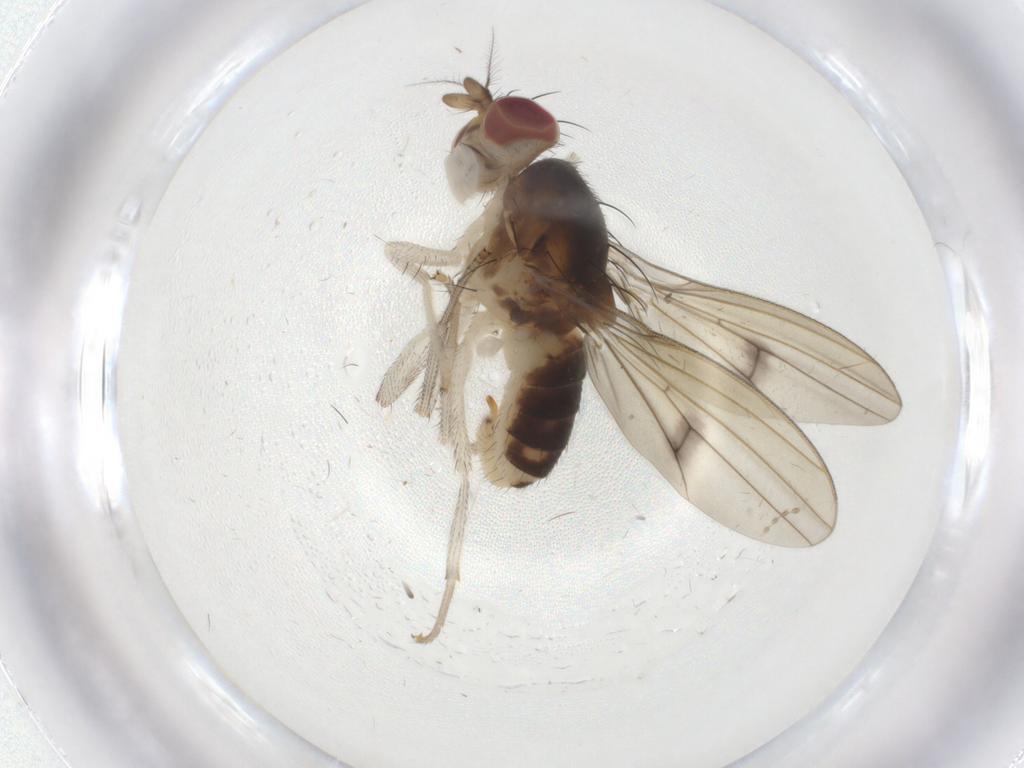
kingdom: Animalia
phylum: Arthropoda
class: Insecta
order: Diptera
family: Lauxaniidae
